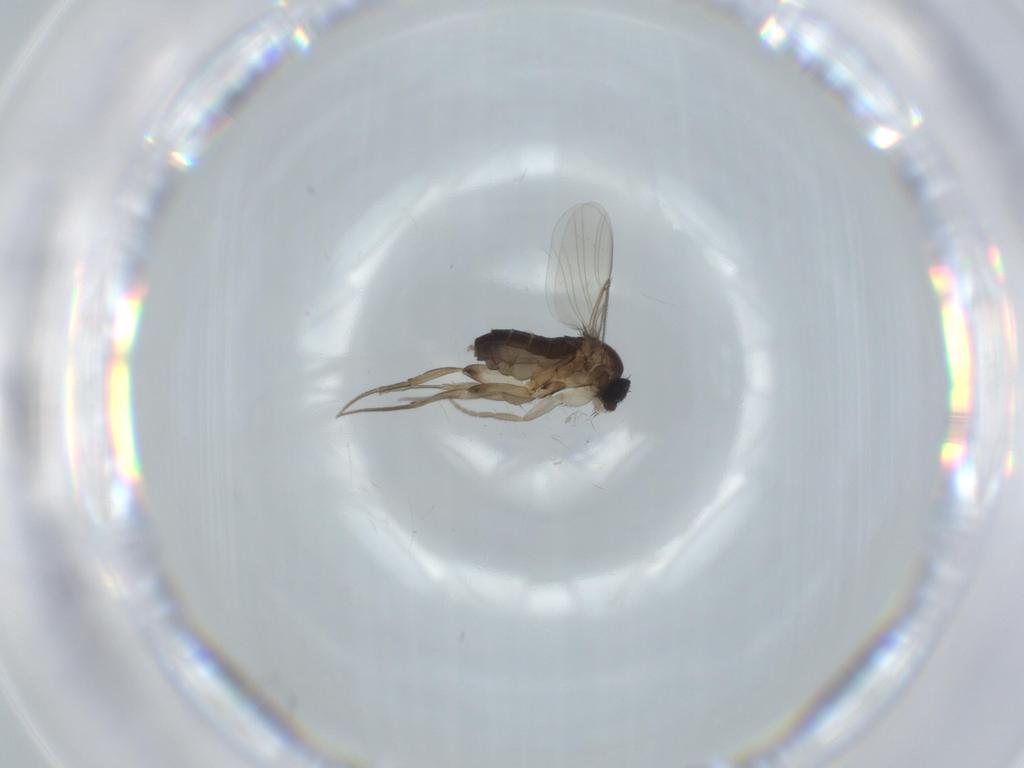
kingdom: Animalia
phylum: Arthropoda
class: Insecta
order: Diptera
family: Phoridae
